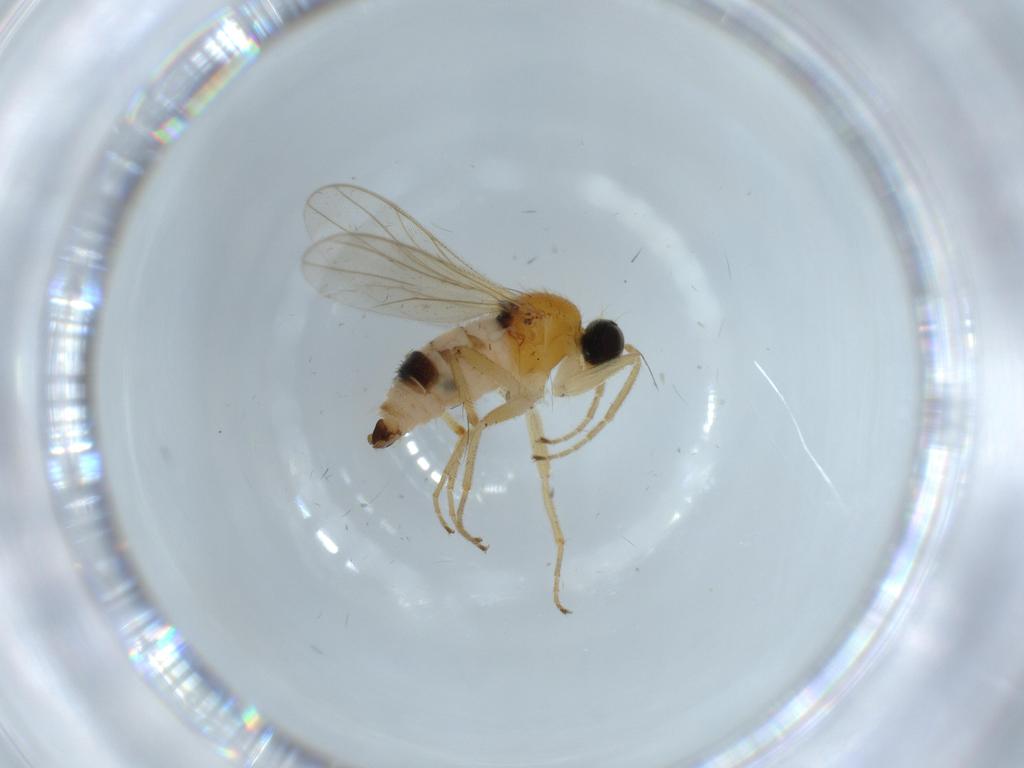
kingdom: Animalia
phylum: Arthropoda
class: Insecta
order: Diptera
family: Hybotidae
